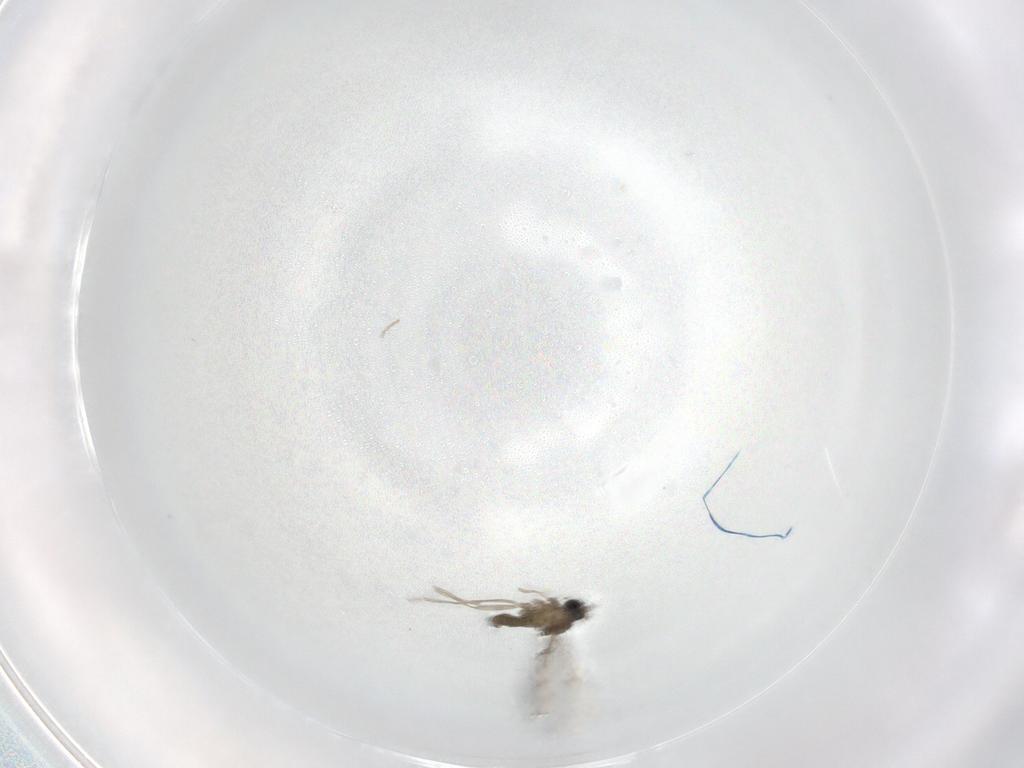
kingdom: Animalia
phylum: Arthropoda
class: Insecta
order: Diptera
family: Cecidomyiidae
